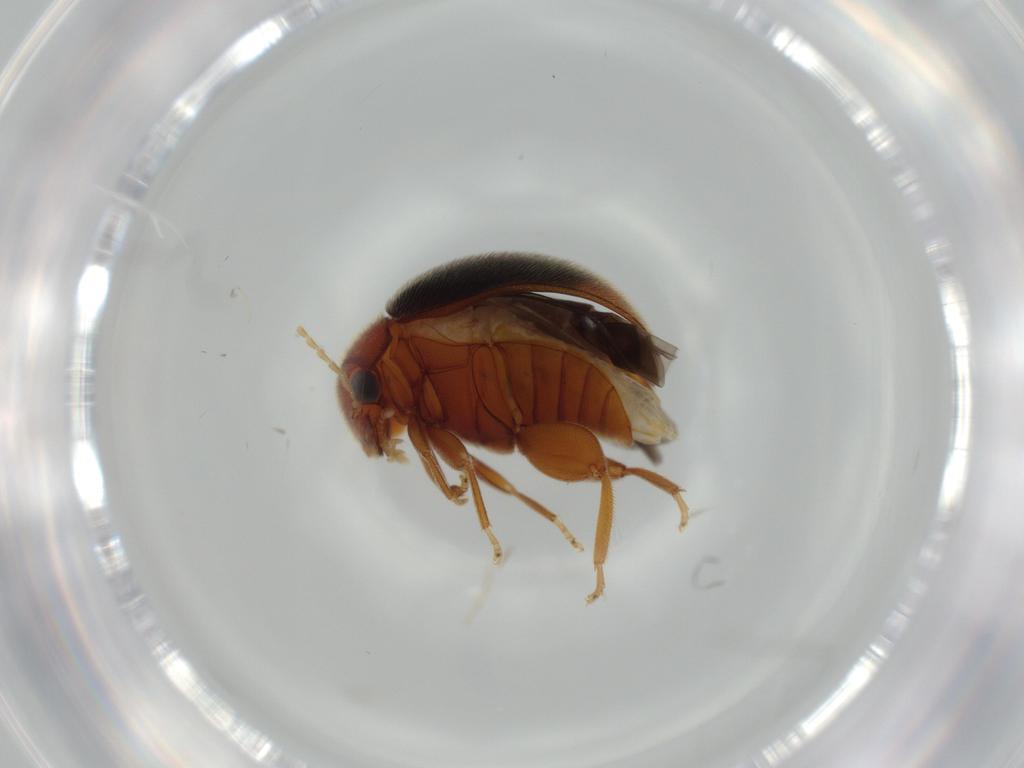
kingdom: Animalia
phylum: Arthropoda
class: Insecta
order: Coleoptera
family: Scirtidae
